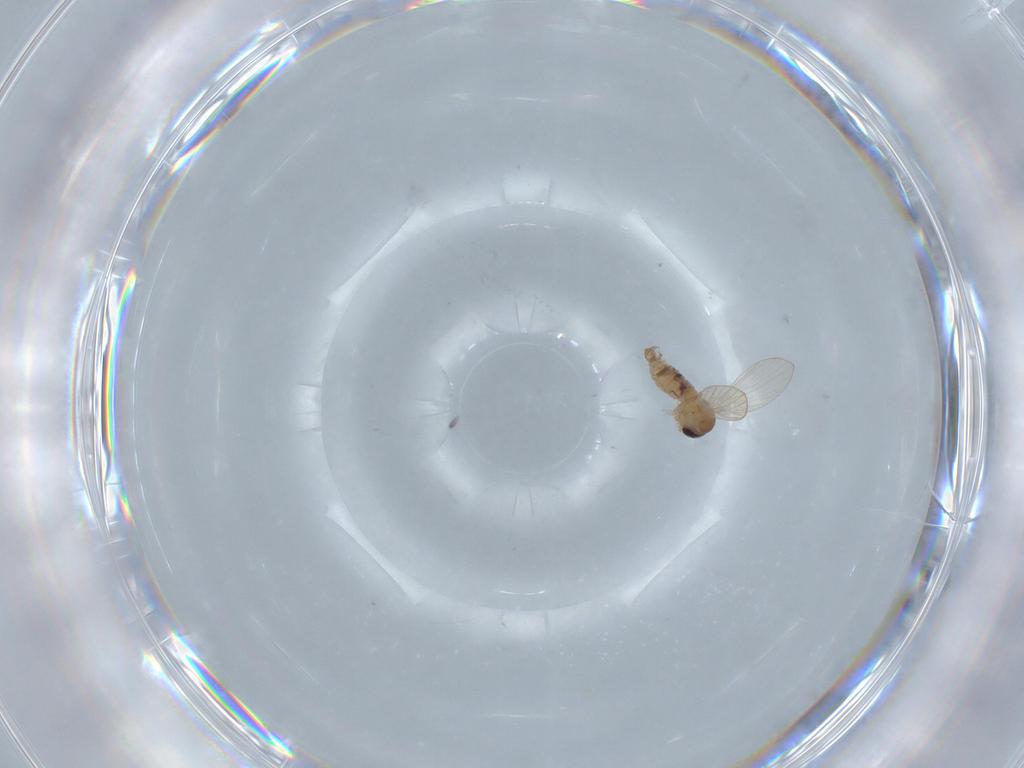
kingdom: Animalia
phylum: Arthropoda
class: Insecta
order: Diptera
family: Psychodidae
